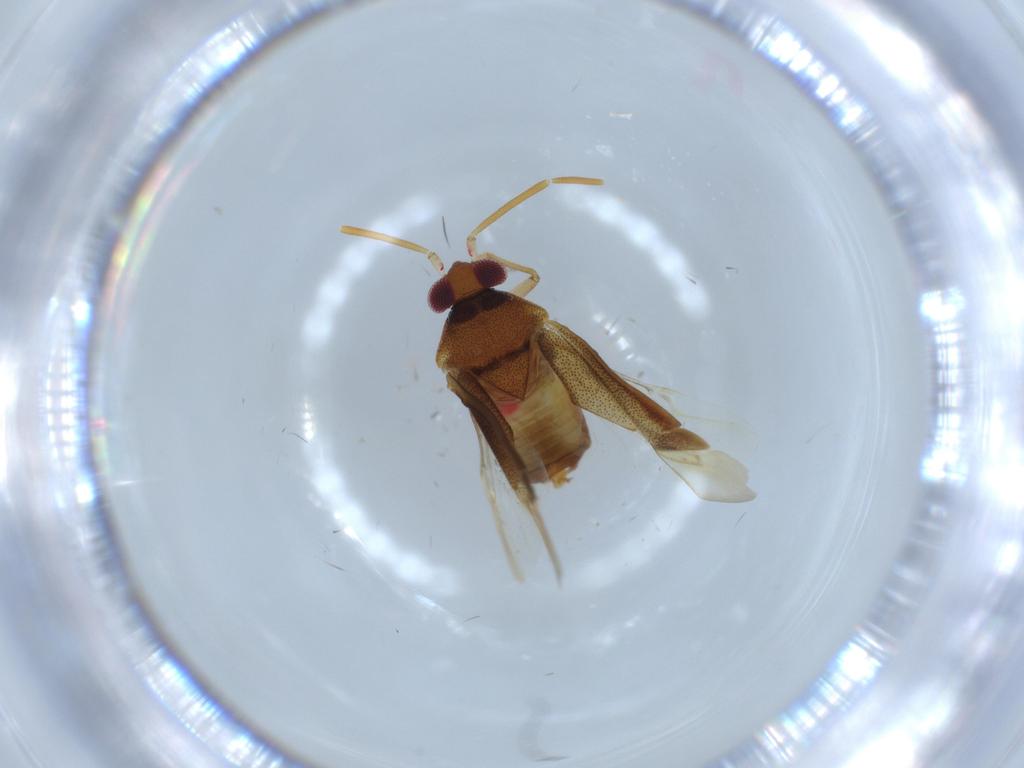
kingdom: Animalia
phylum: Arthropoda
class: Insecta
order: Hemiptera
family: Miridae
